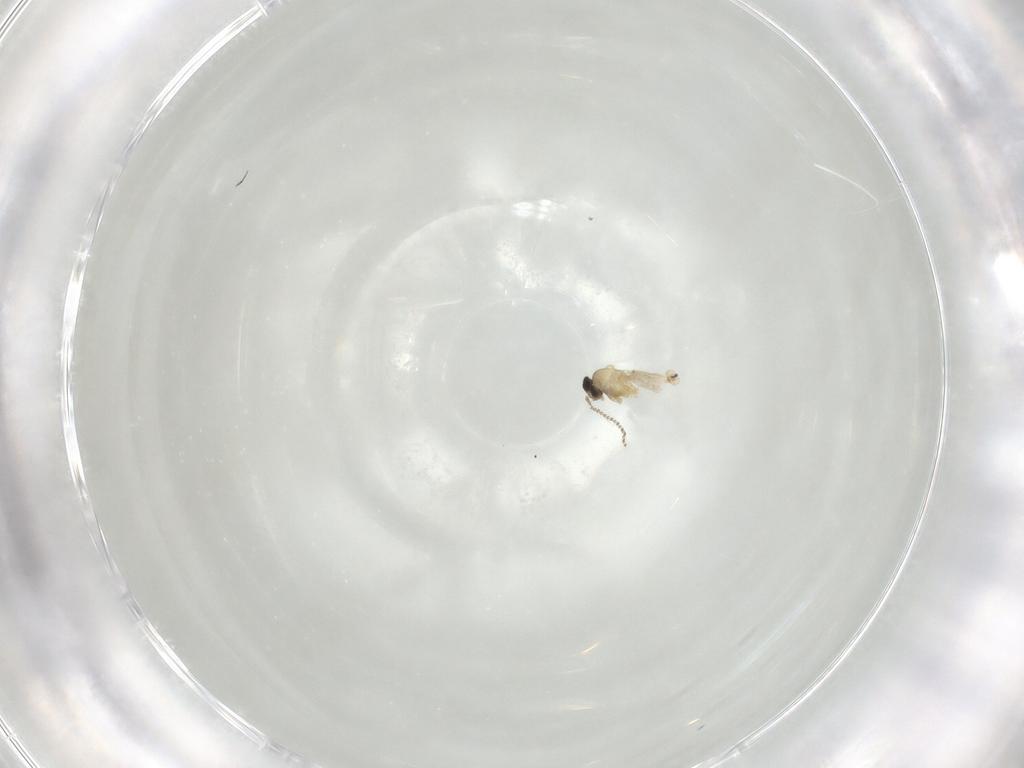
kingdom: Animalia
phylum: Arthropoda
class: Insecta
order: Diptera
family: Cecidomyiidae
